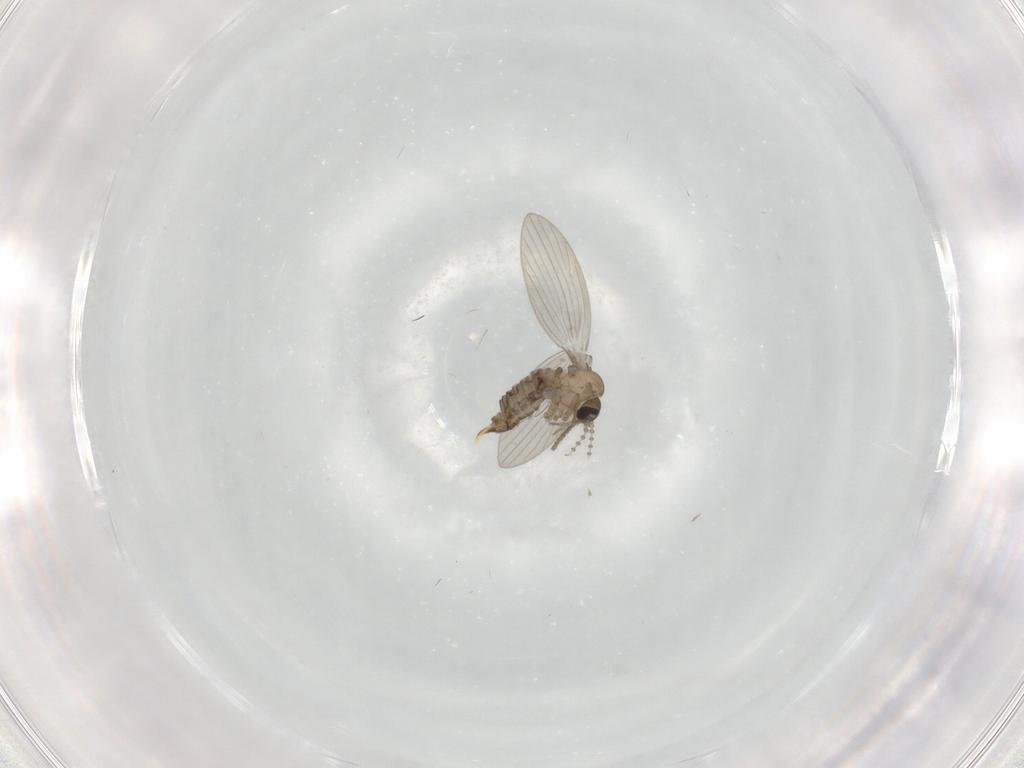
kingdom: Animalia
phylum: Arthropoda
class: Insecta
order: Diptera
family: Psychodidae
